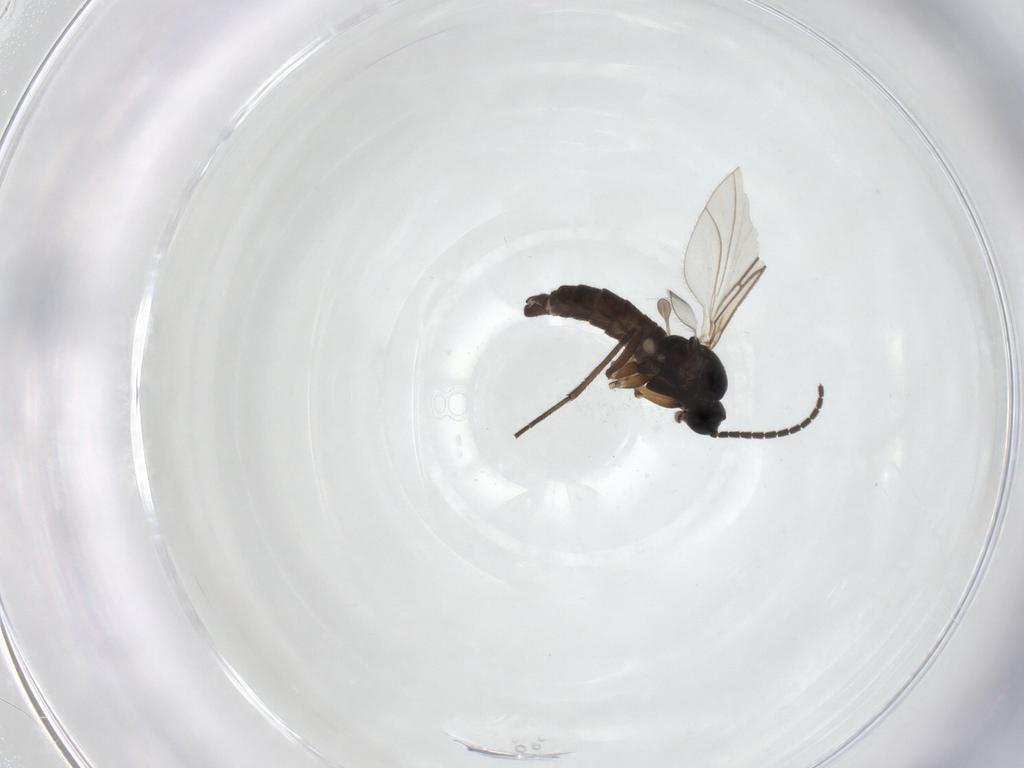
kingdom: Animalia
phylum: Arthropoda
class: Insecta
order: Diptera
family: Sciaridae
